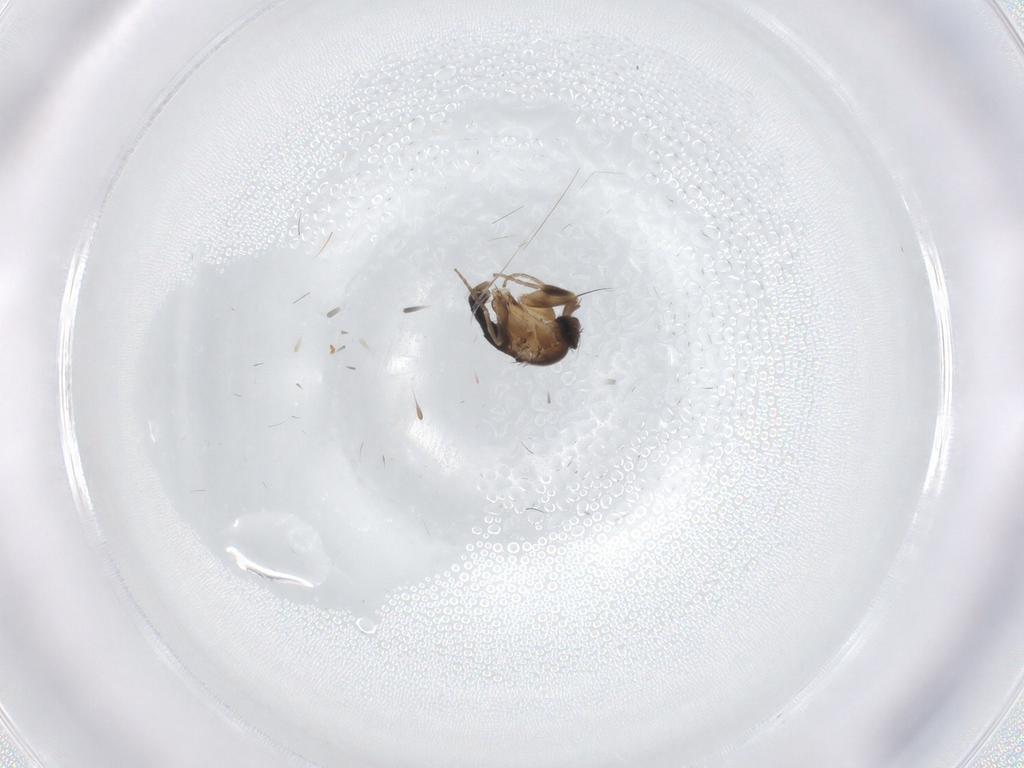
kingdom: Animalia
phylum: Arthropoda
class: Insecta
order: Diptera
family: Phoridae
